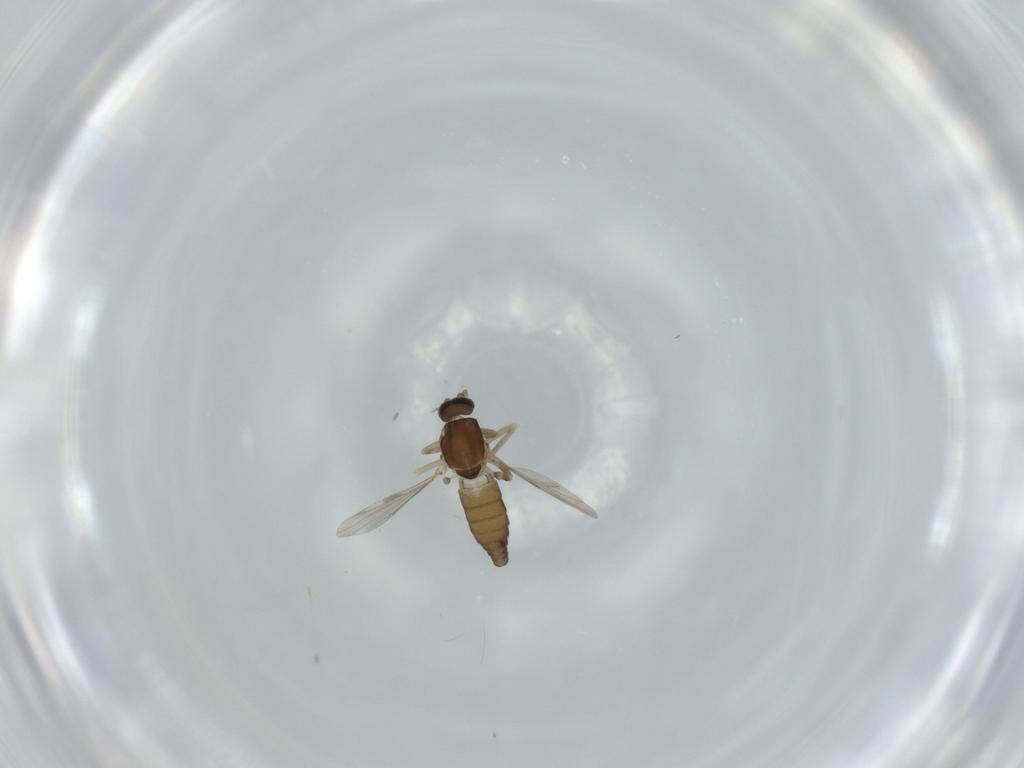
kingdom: Animalia
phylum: Arthropoda
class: Insecta
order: Diptera
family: Ceratopogonidae
